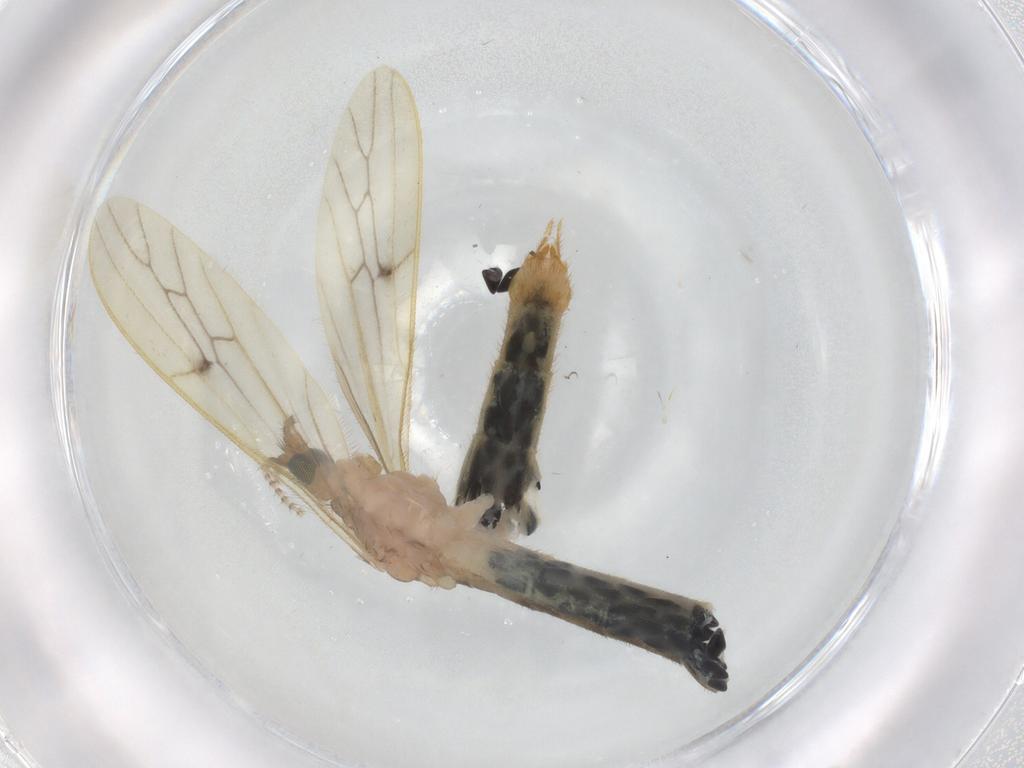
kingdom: Animalia
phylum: Arthropoda
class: Insecta
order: Diptera
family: Limoniidae
